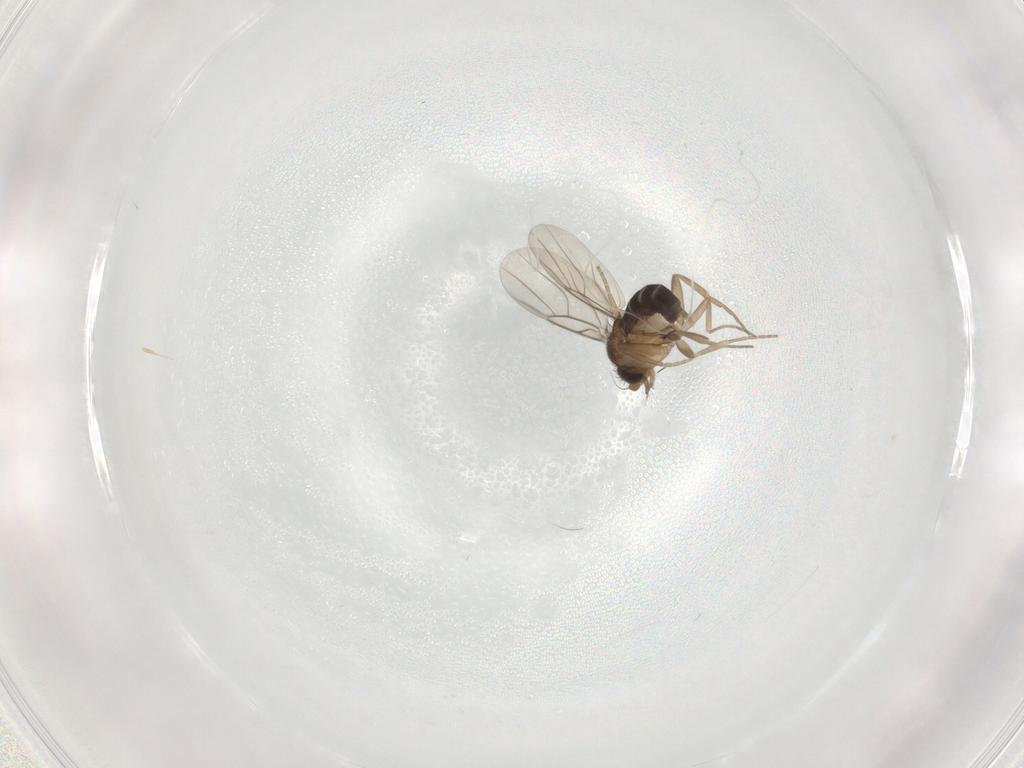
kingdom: Animalia
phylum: Arthropoda
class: Insecta
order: Diptera
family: Phoridae
